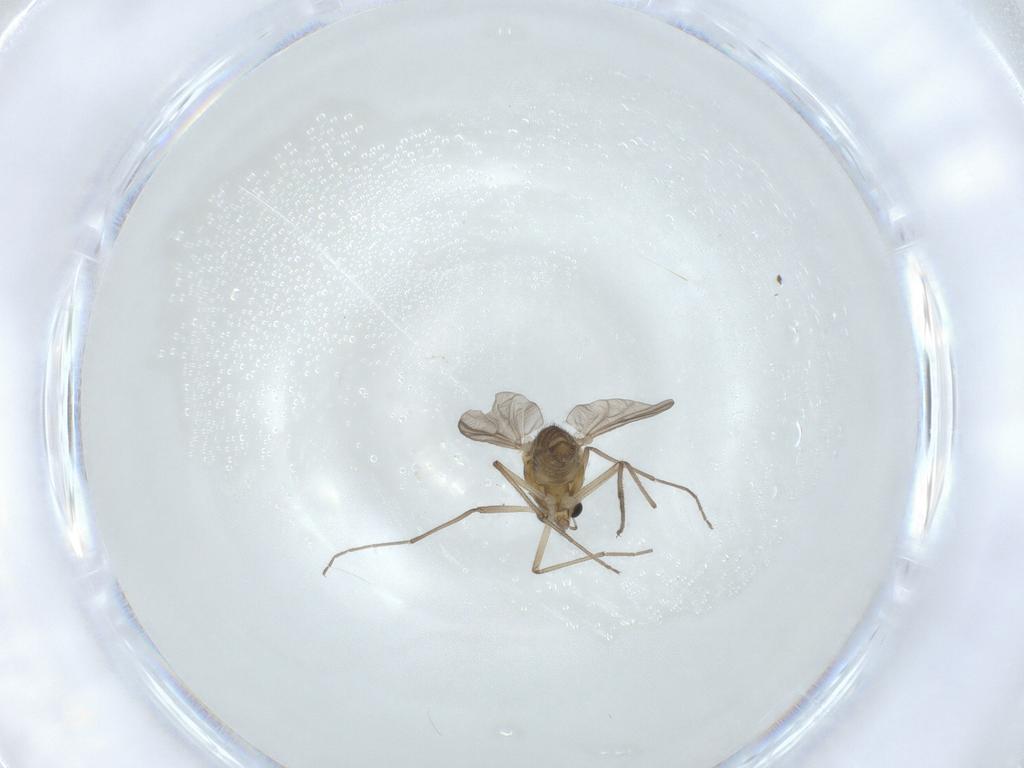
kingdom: Animalia
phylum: Arthropoda
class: Insecta
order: Diptera
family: Chironomidae
